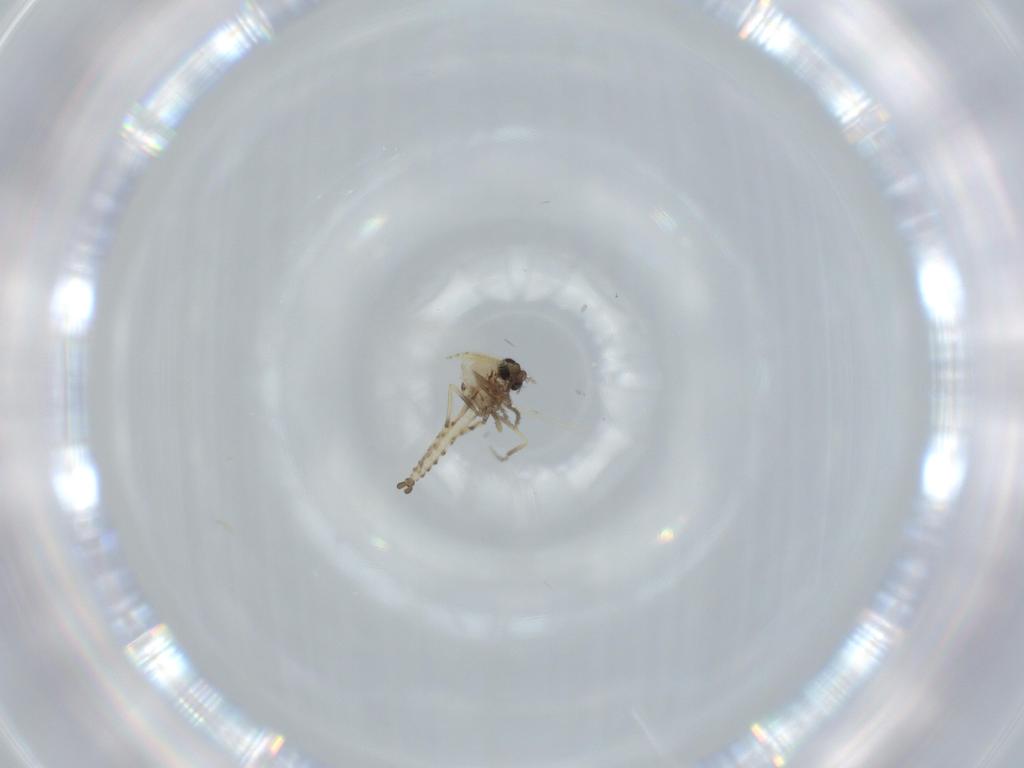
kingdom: Animalia
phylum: Arthropoda
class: Insecta
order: Diptera
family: Ceratopogonidae
